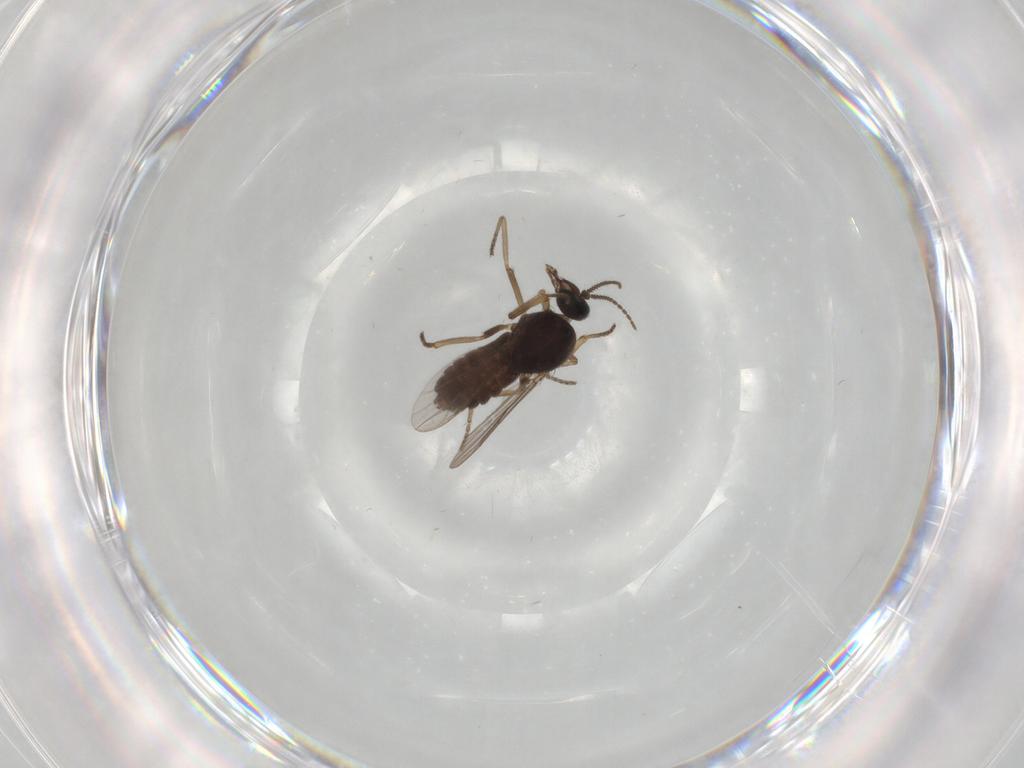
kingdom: Animalia
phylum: Arthropoda
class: Insecta
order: Diptera
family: Ceratopogonidae
